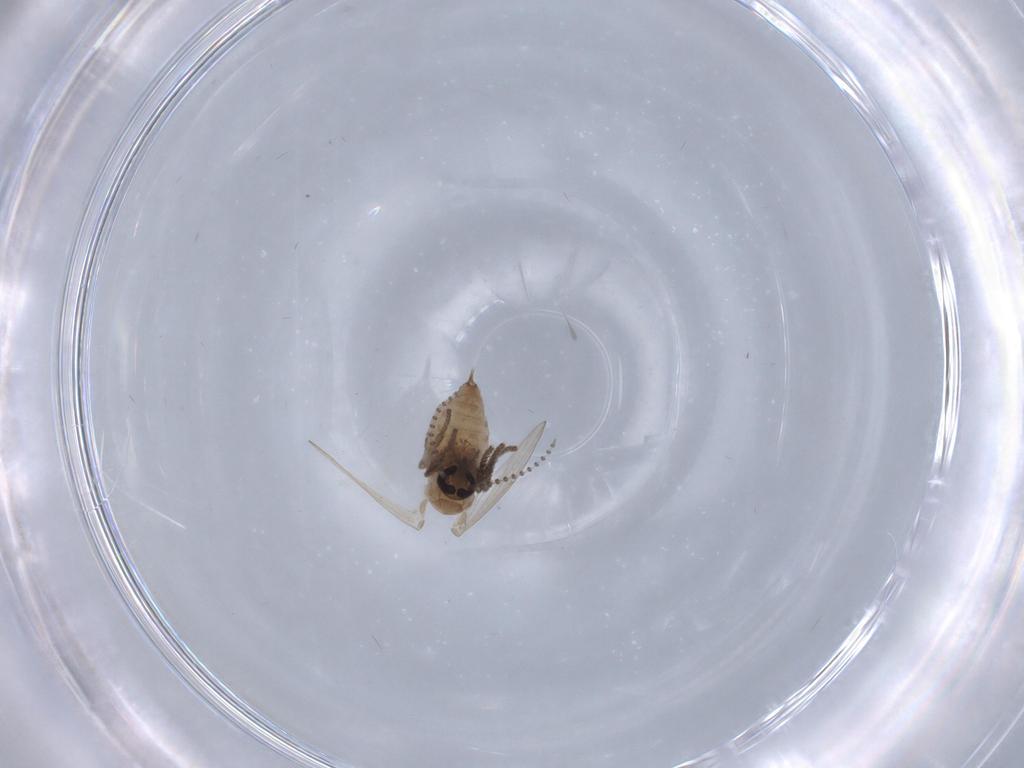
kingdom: Animalia
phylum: Arthropoda
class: Insecta
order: Diptera
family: Psychodidae
